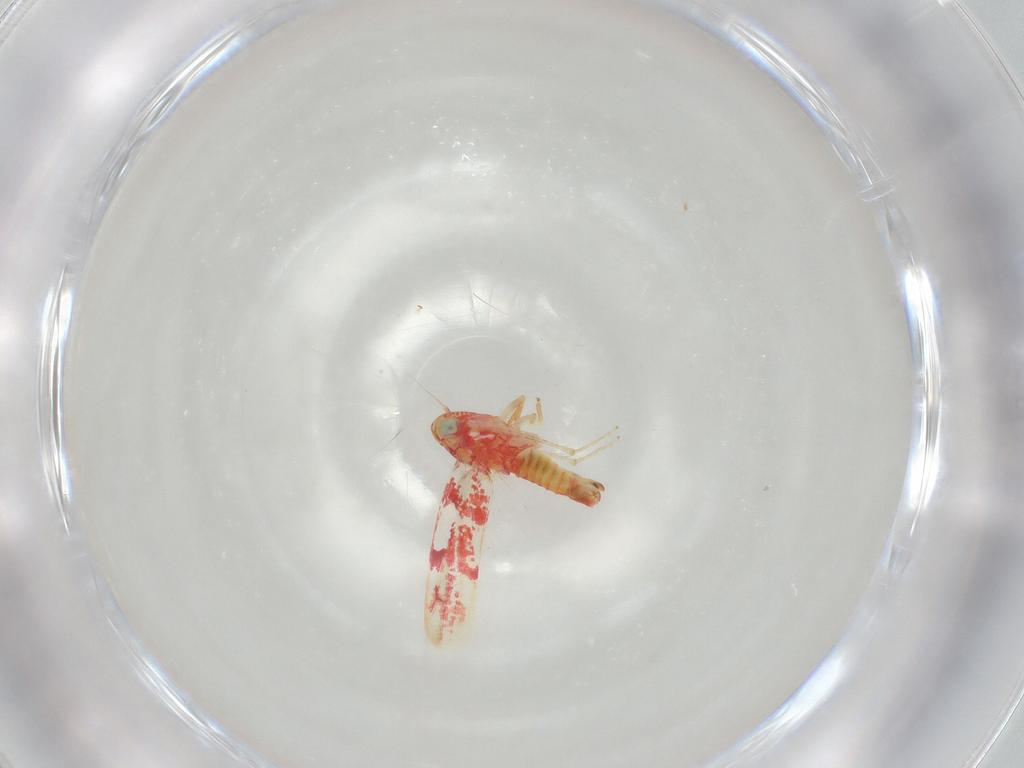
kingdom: Animalia
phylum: Arthropoda
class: Insecta
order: Hemiptera
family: Cicadellidae
